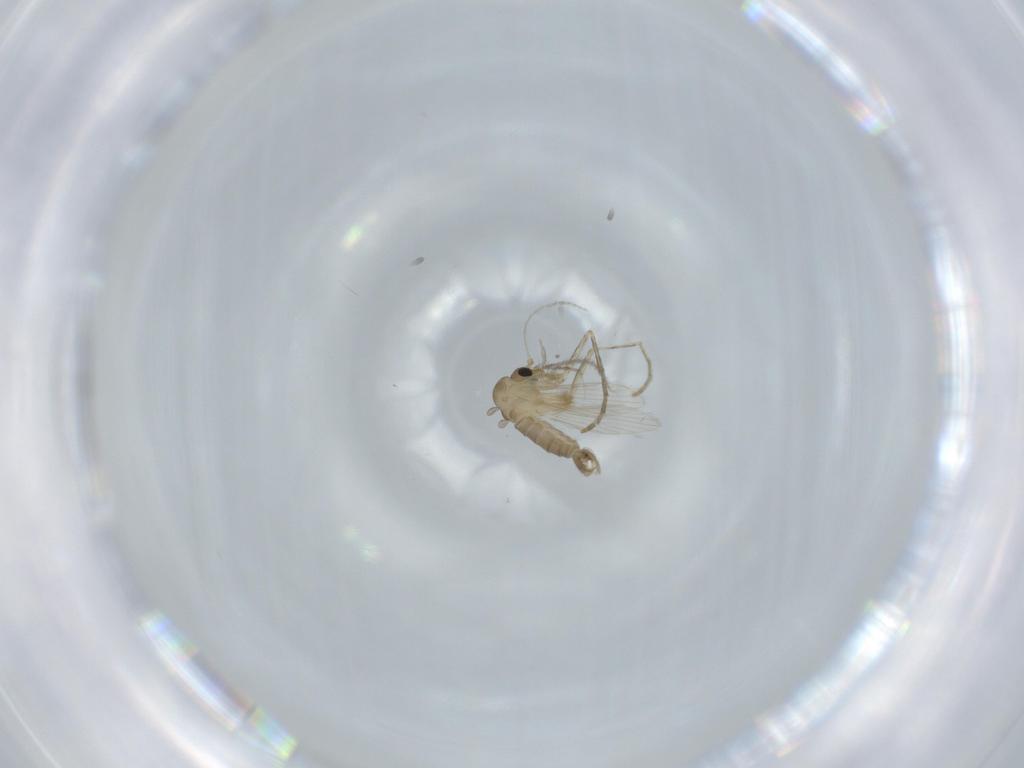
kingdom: Animalia
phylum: Arthropoda
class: Insecta
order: Diptera
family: Psychodidae
